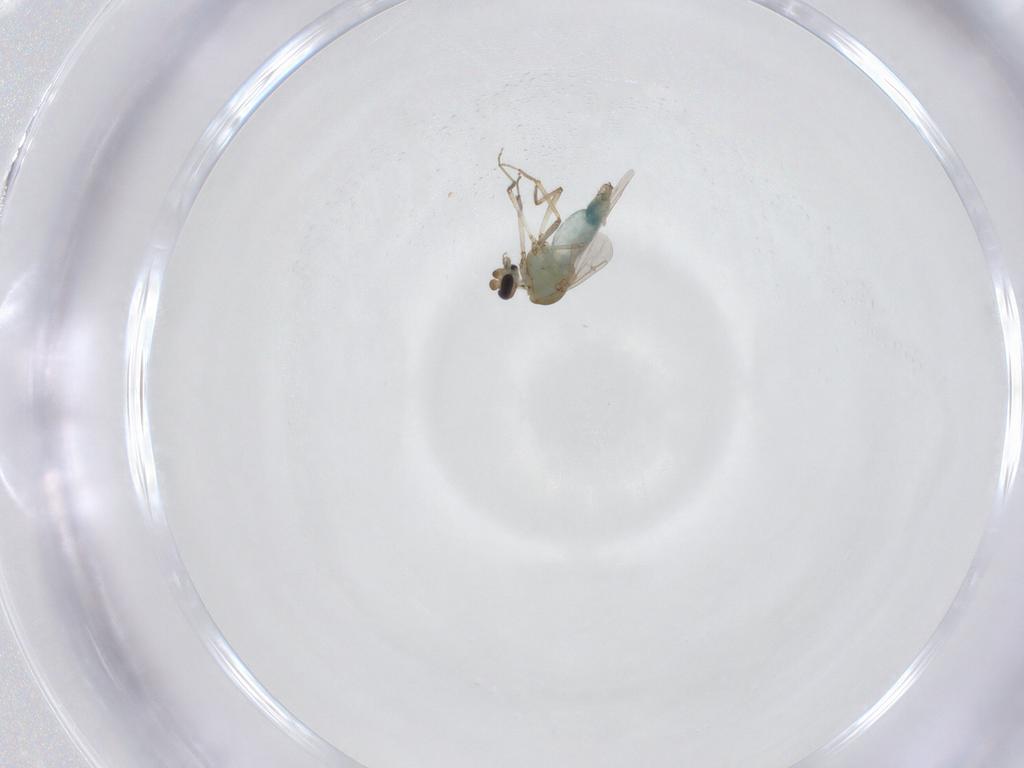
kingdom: Animalia
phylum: Arthropoda
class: Insecta
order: Diptera
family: Ceratopogonidae
